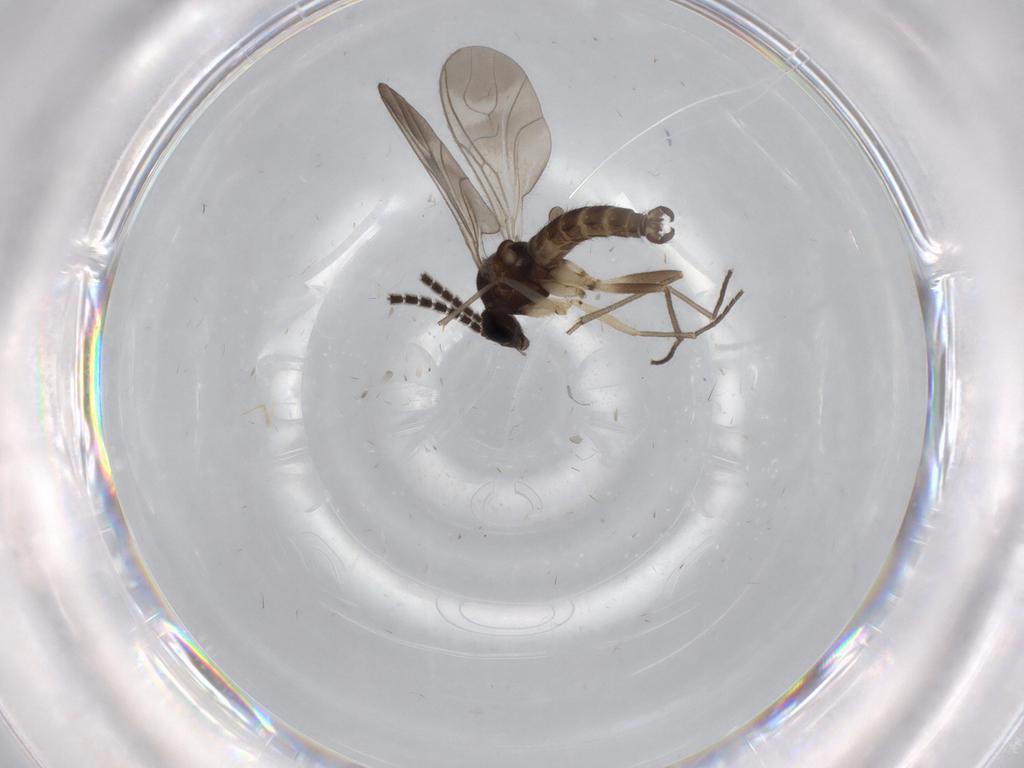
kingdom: Animalia
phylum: Arthropoda
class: Insecta
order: Diptera
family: Sciaridae
